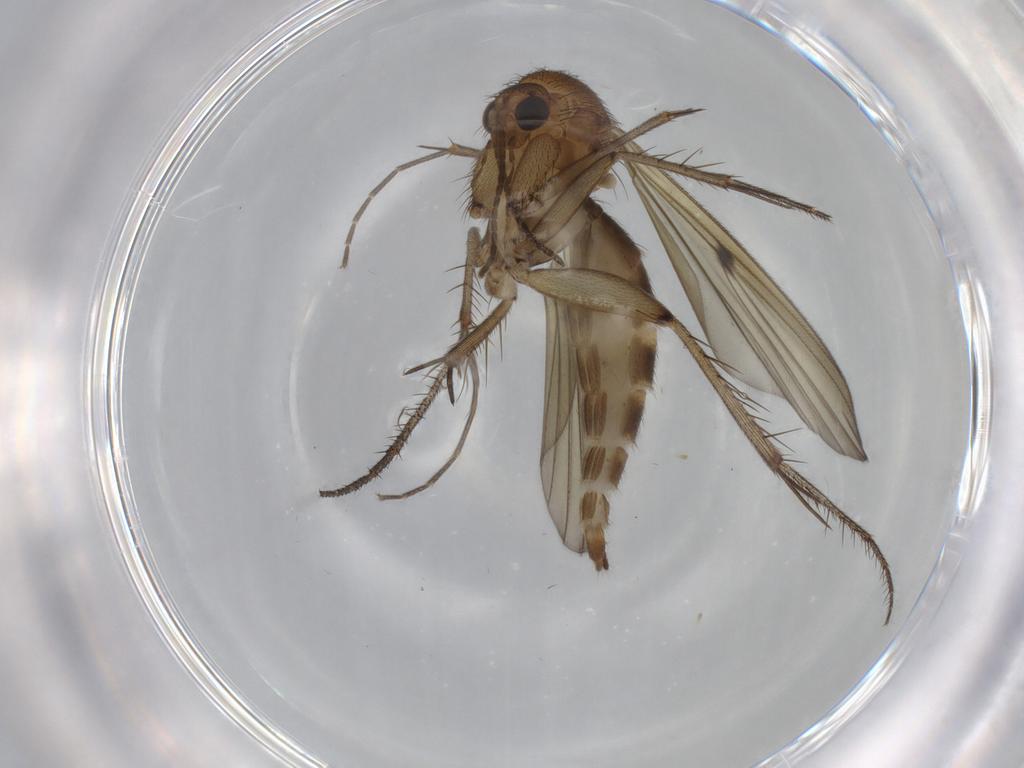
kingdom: Animalia
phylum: Arthropoda
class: Insecta
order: Diptera
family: Mycetophilidae
